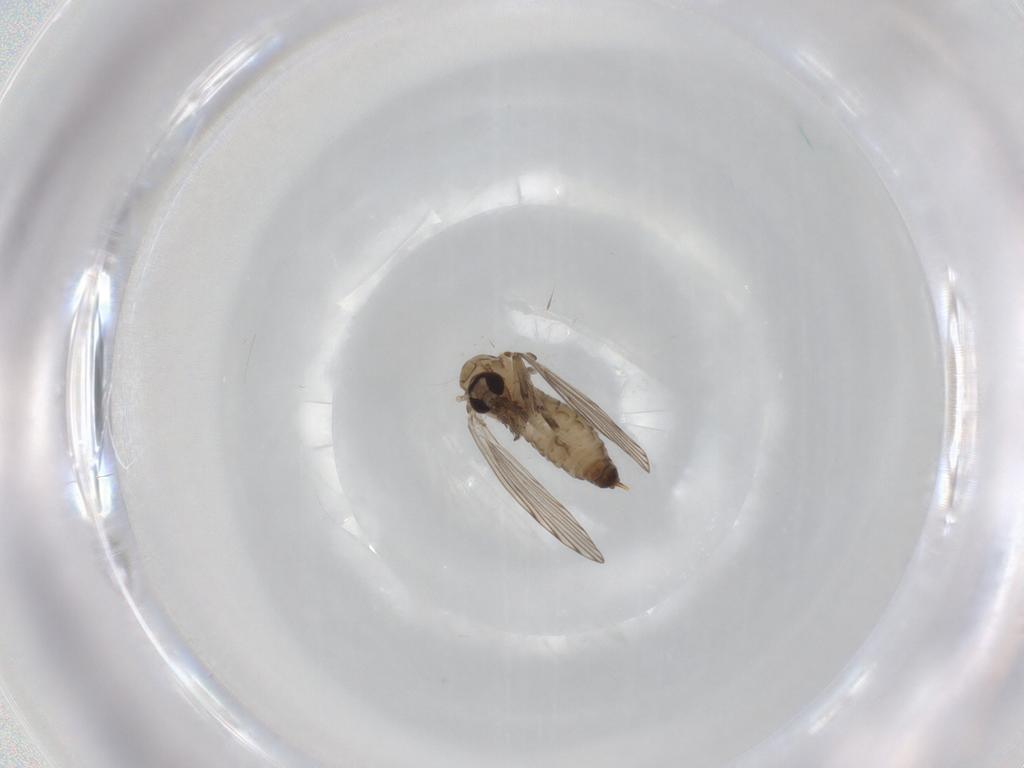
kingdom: Animalia
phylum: Arthropoda
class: Insecta
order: Diptera
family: Psychodidae
